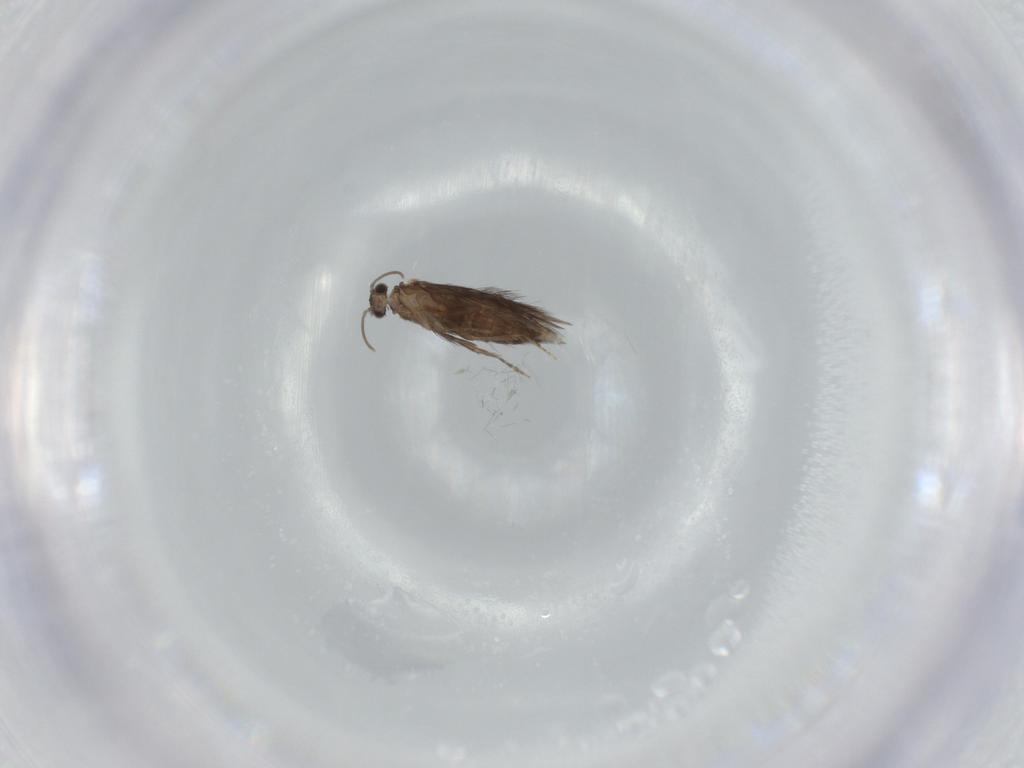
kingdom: Animalia
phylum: Arthropoda
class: Insecta
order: Trichoptera
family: Hydroptilidae
